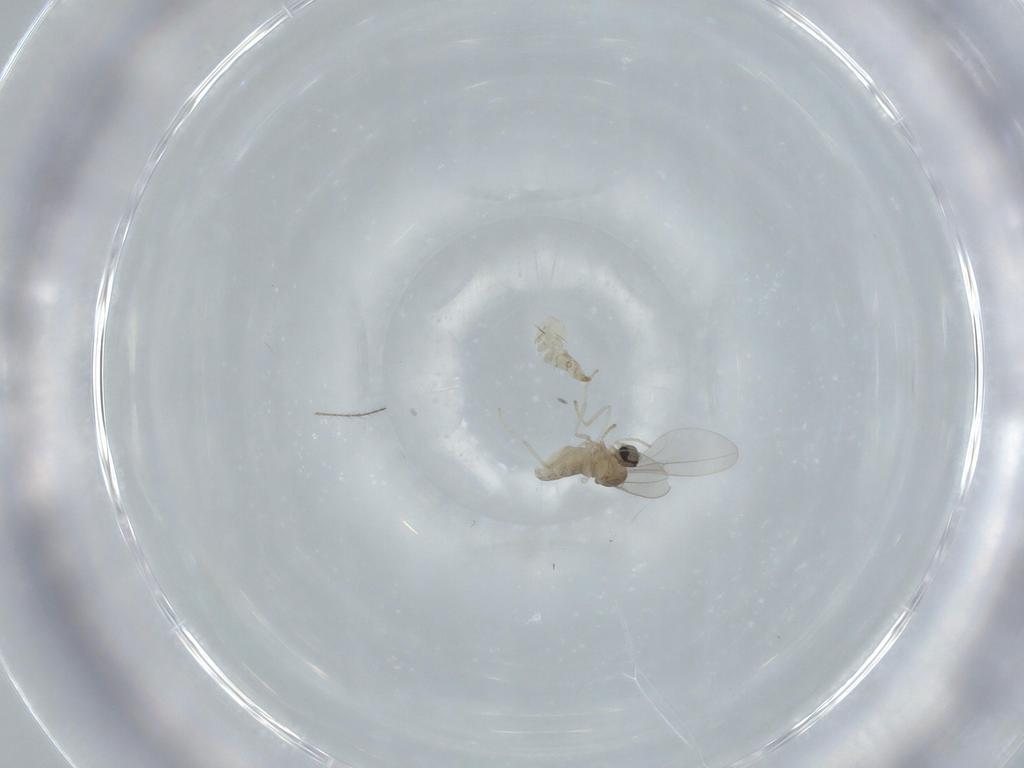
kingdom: Animalia
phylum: Arthropoda
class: Insecta
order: Diptera
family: Cecidomyiidae
